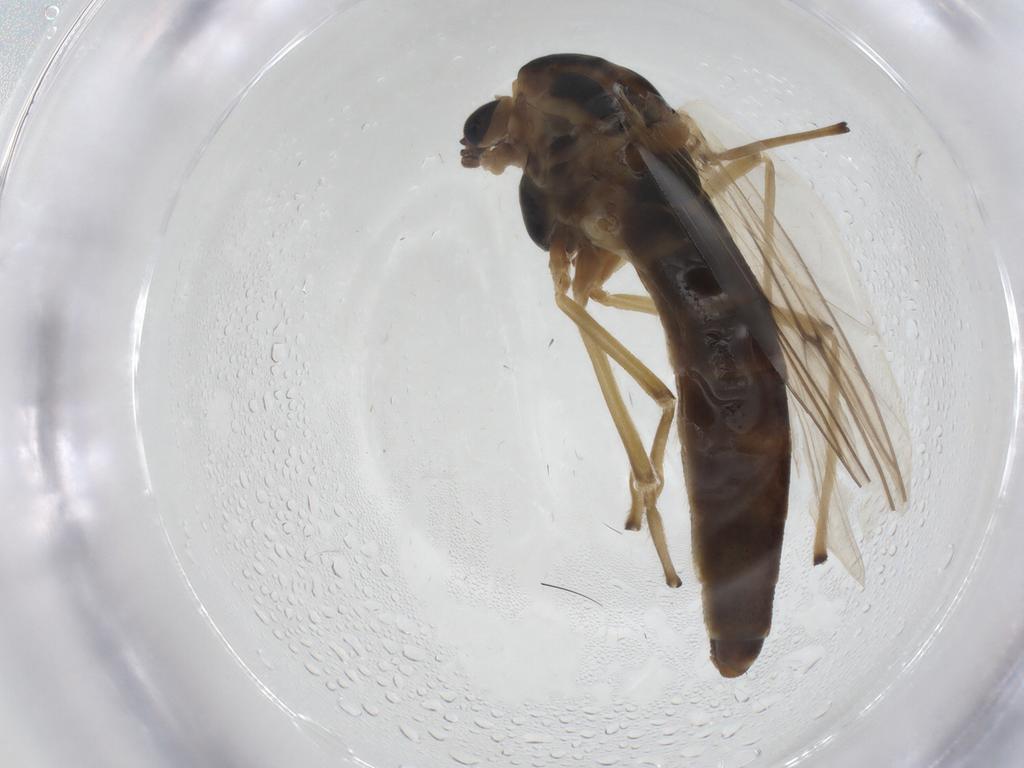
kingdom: Animalia
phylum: Arthropoda
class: Insecta
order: Diptera
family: Chironomidae
